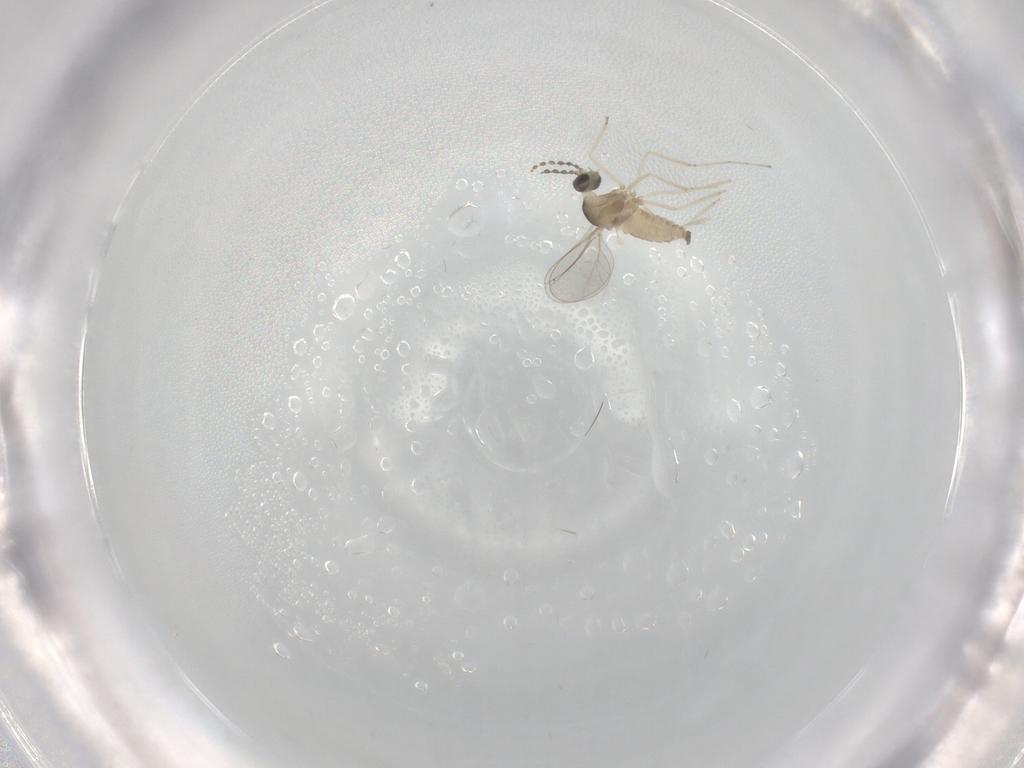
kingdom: Animalia
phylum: Arthropoda
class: Insecta
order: Diptera
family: Cecidomyiidae
